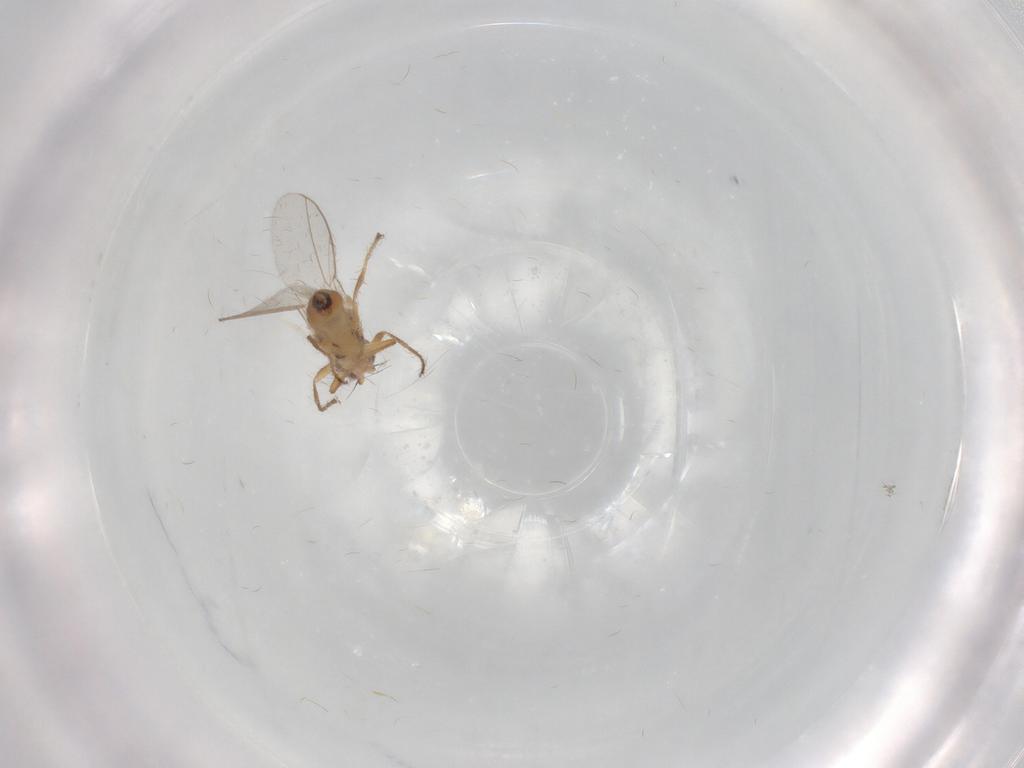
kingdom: Animalia
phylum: Arthropoda
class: Insecta
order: Diptera
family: Chloropidae
